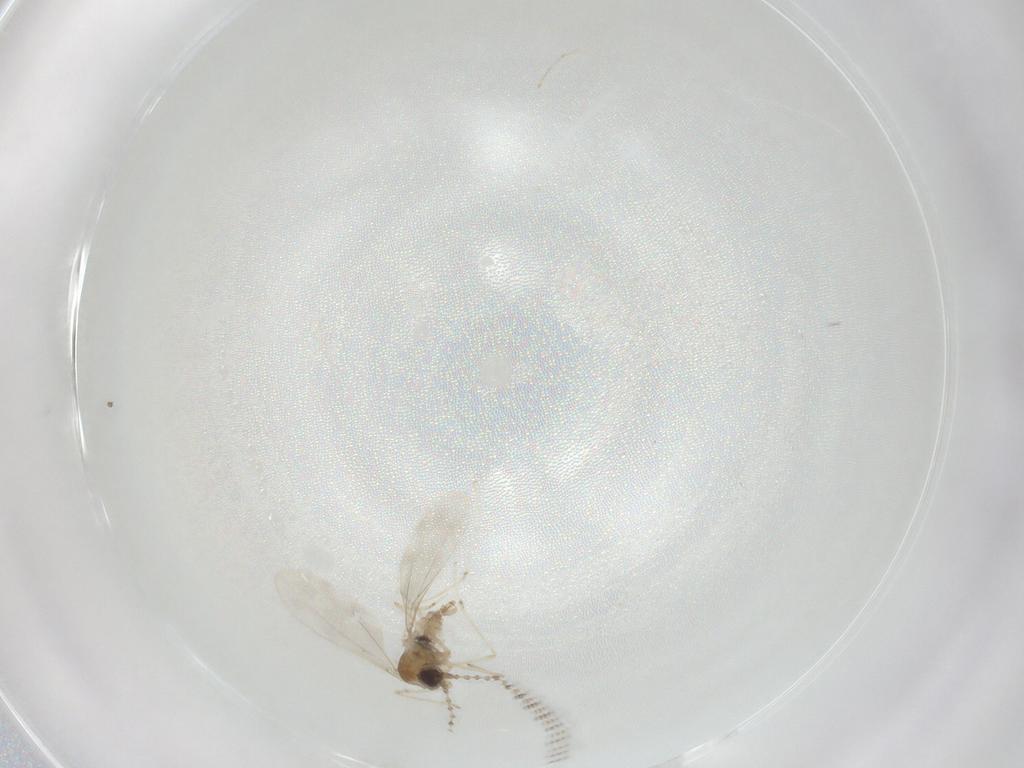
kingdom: Animalia
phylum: Arthropoda
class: Insecta
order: Diptera
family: Cecidomyiidae
